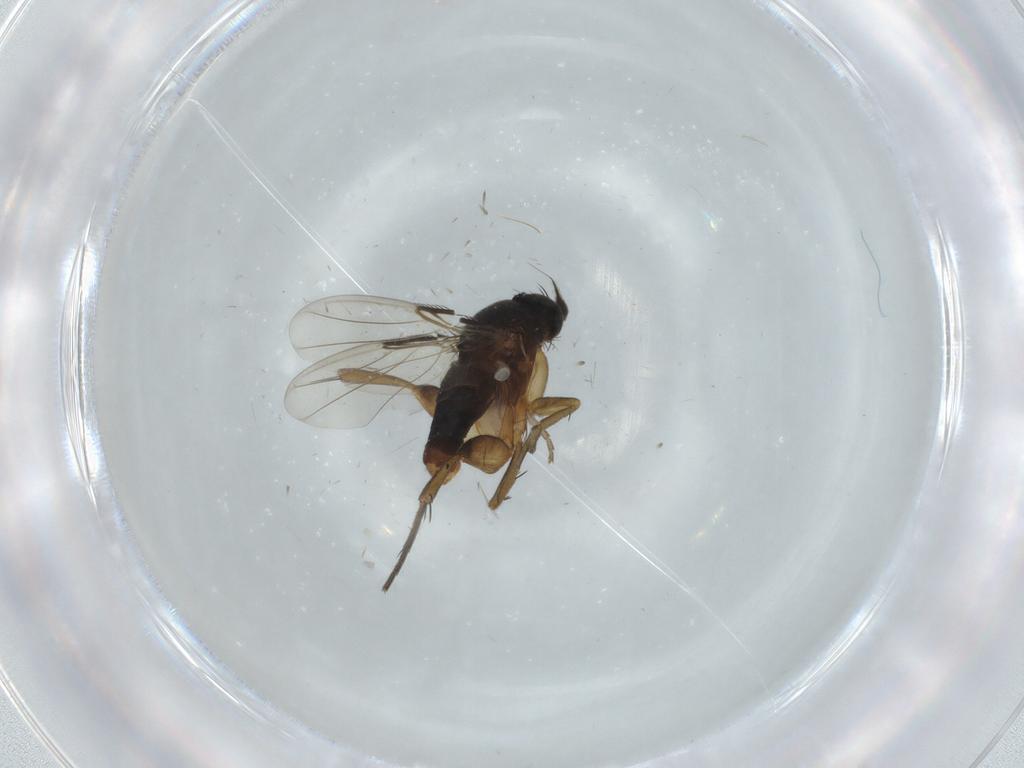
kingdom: Animalia
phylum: Arthropoda
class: Insecta
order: Diptera
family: Phoridae
